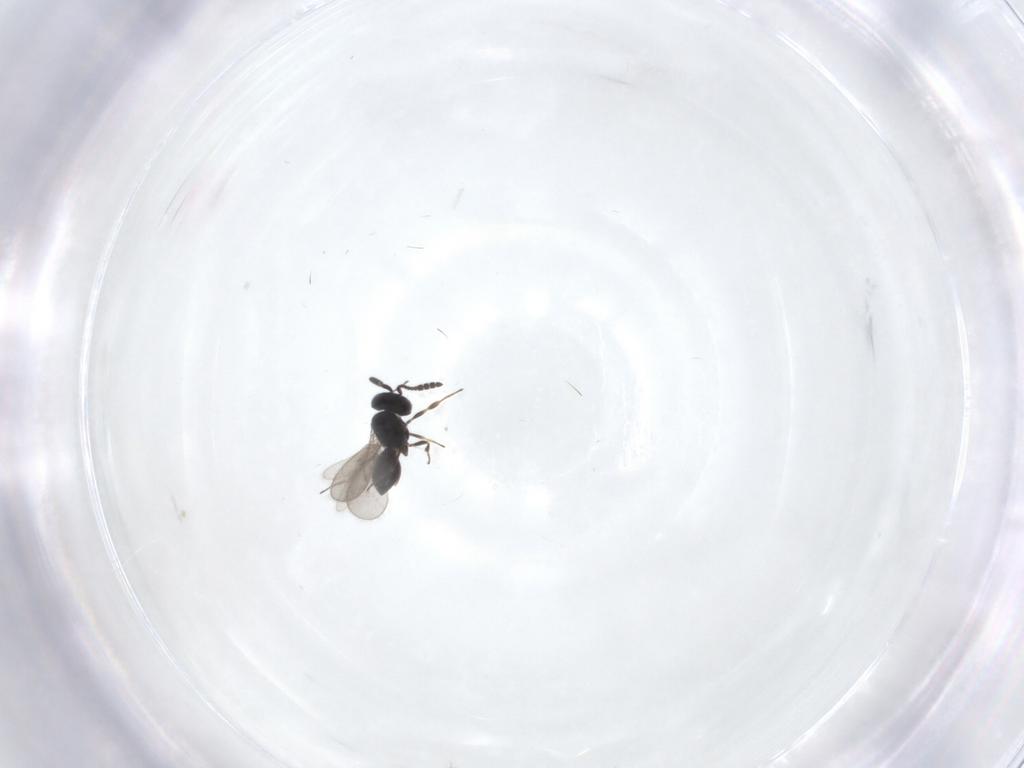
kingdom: Animalia
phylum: Arthropoda
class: Insecta
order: Hymenoptera
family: Scelionidae
